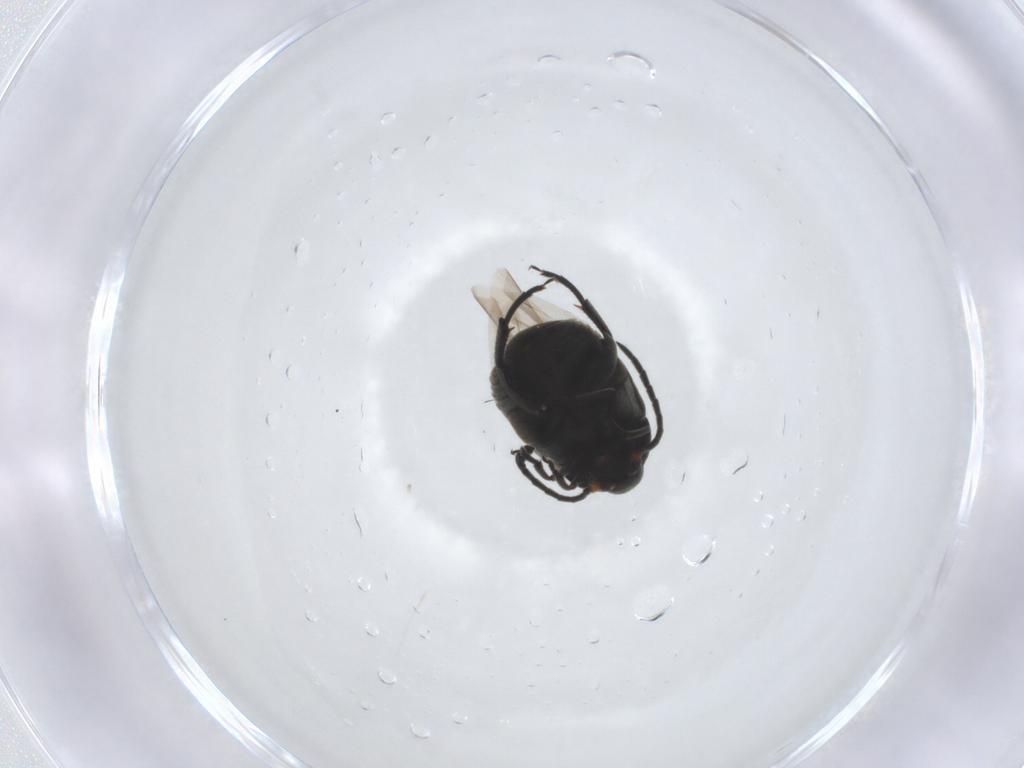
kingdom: Animalia
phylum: Arthropoda
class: Insecta
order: Coleoptera
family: Chrysomelidae
